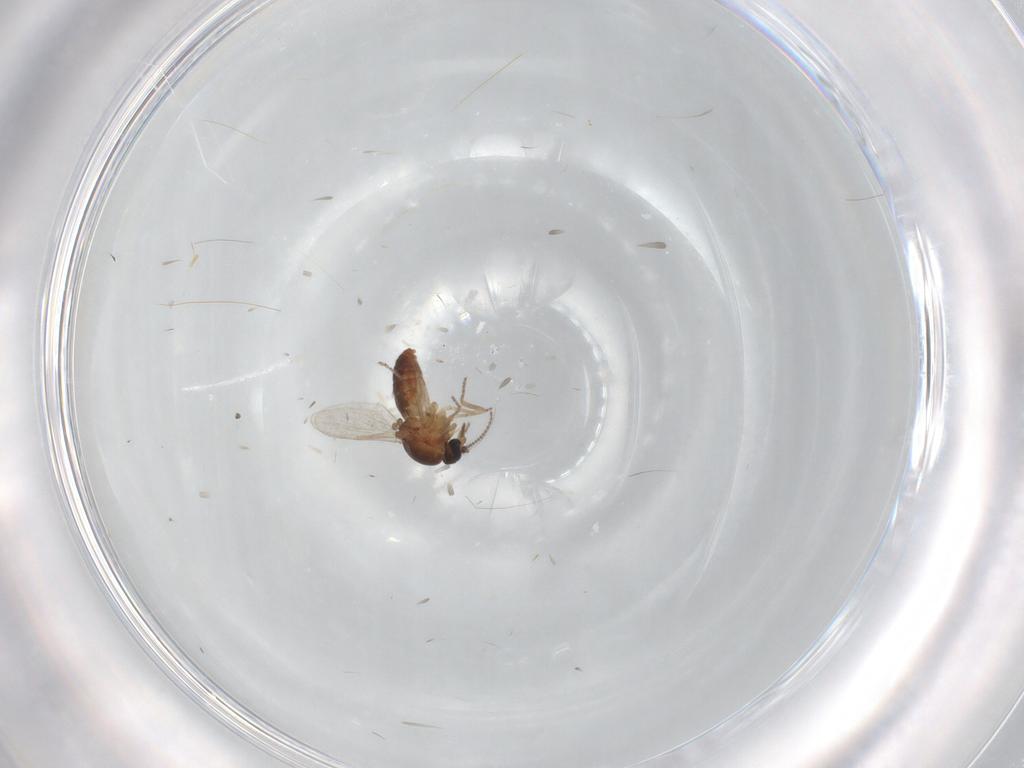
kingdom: Animalia
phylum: Arthropoda
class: Insecta
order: Diptera
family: Ceratopogonidae
